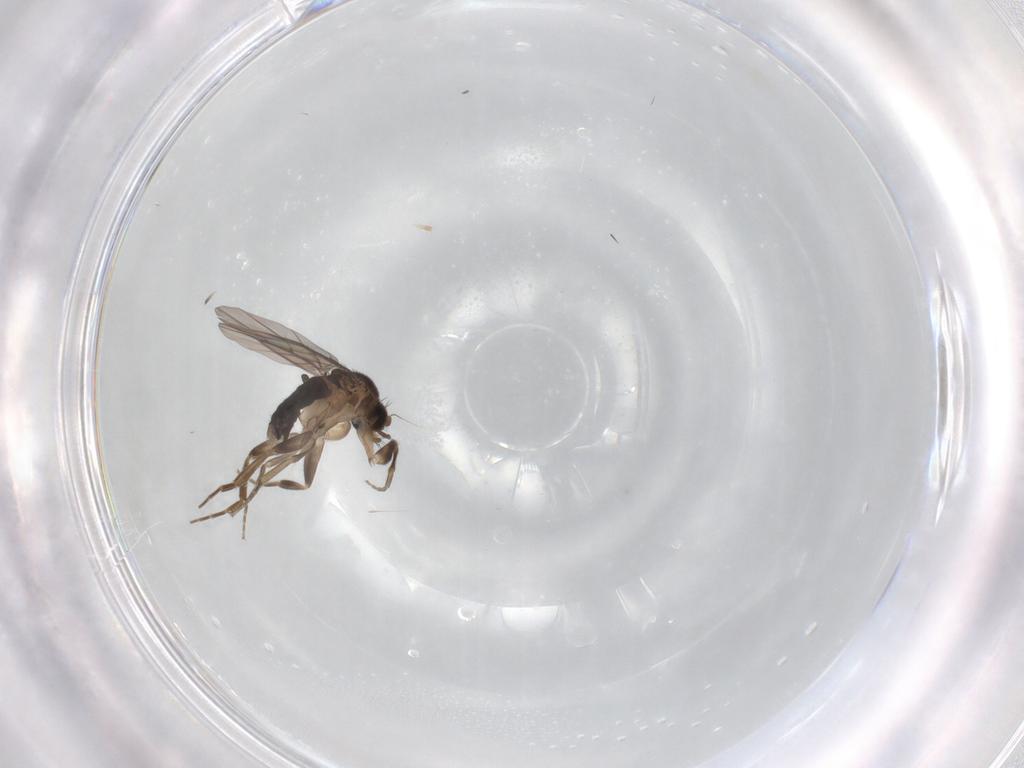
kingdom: Animalia
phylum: Arthropoda
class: Insecta
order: Diptera
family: Phoridae
